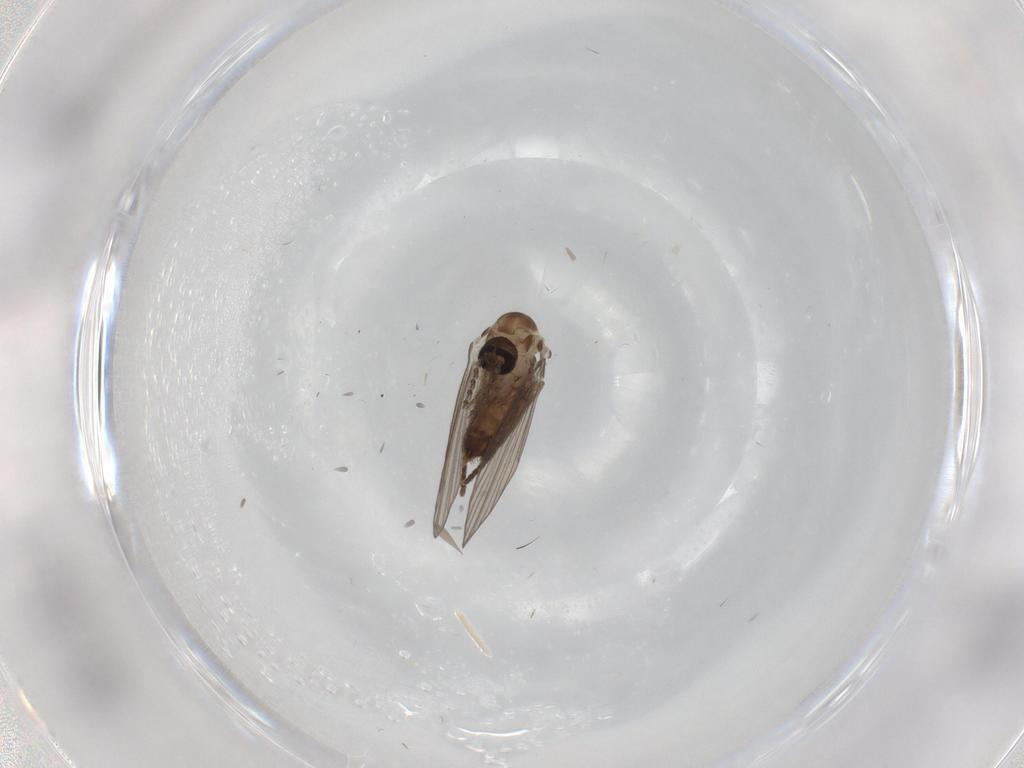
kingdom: Animalia
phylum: Arthropoda
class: Insecta
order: Diptera
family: Psychodidae
